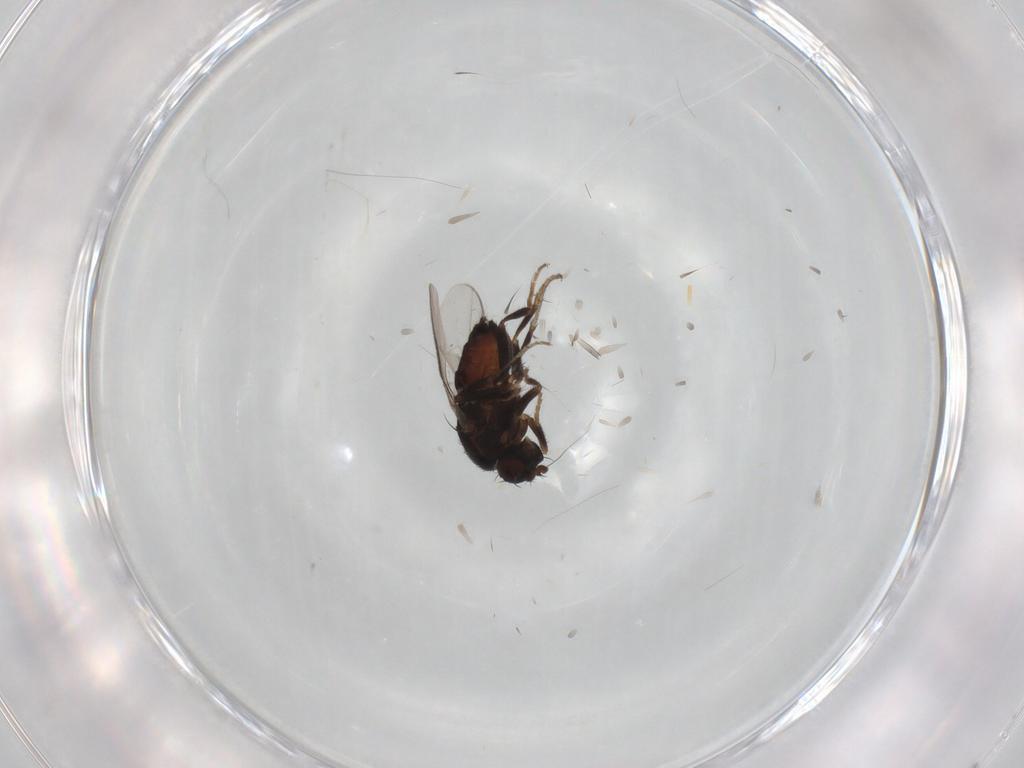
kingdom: Animalia
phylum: Arthropoda
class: Insecta
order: Diptera
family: Sphaeroceridae
